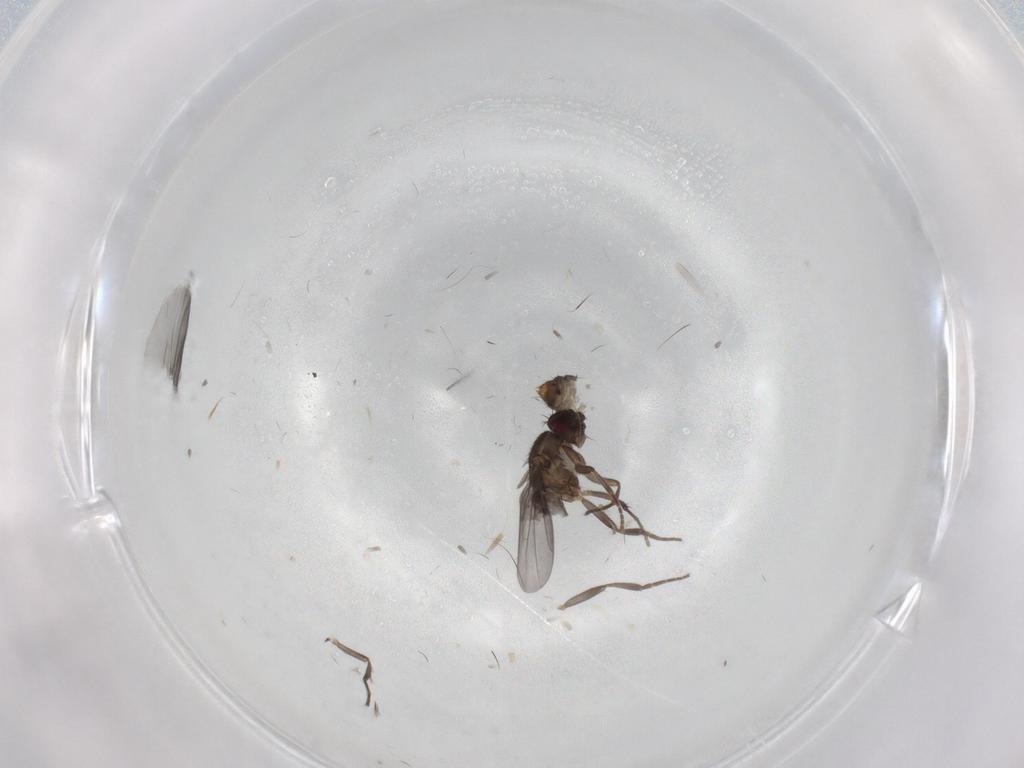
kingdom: Animalia
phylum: Arthropoda
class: Insecta
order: Diptera
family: Sphaeroceridae
